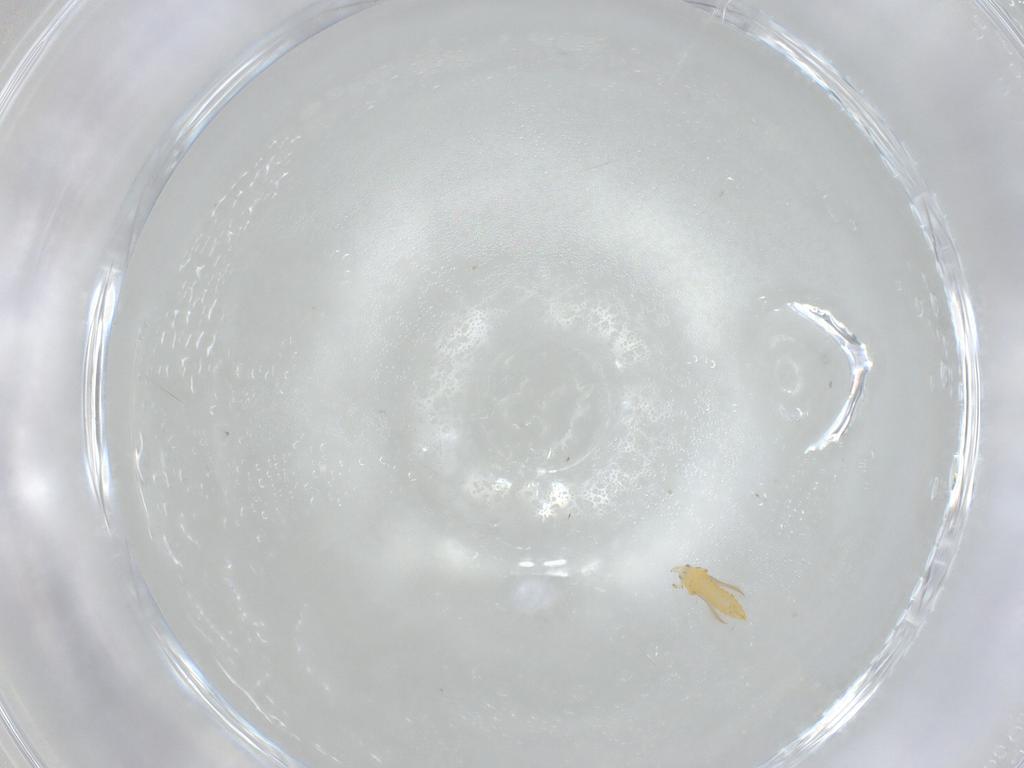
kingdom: Animalia
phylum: Arthropoda
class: Insecta
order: Thysanoptera
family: Thripidae
